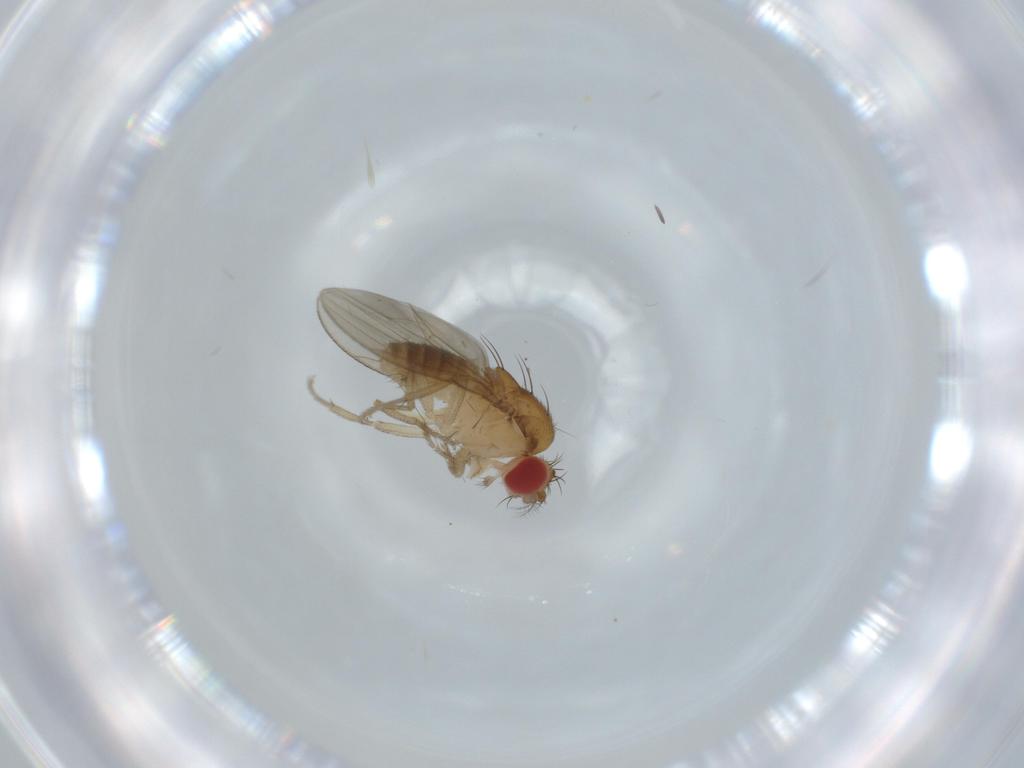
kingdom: Animalia
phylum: Arthropoda
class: Insecta
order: Diptera
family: Drosophilidae
